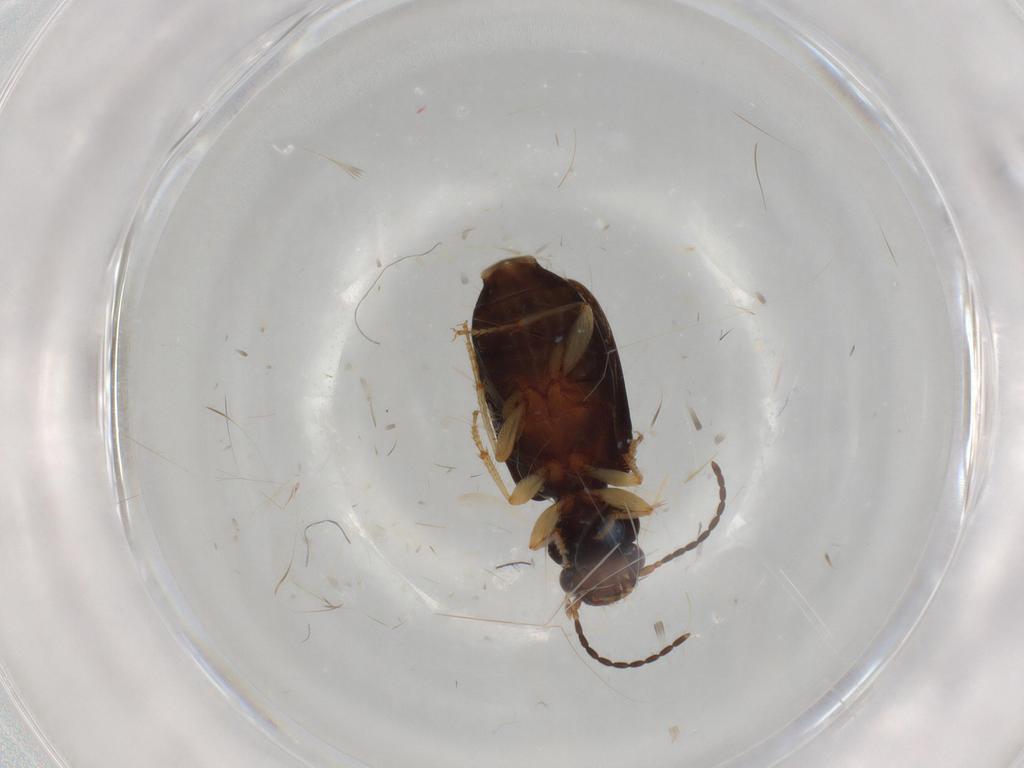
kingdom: Animalia
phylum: Arthropoda
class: Insecta
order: Coleoptera
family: Carabidae
